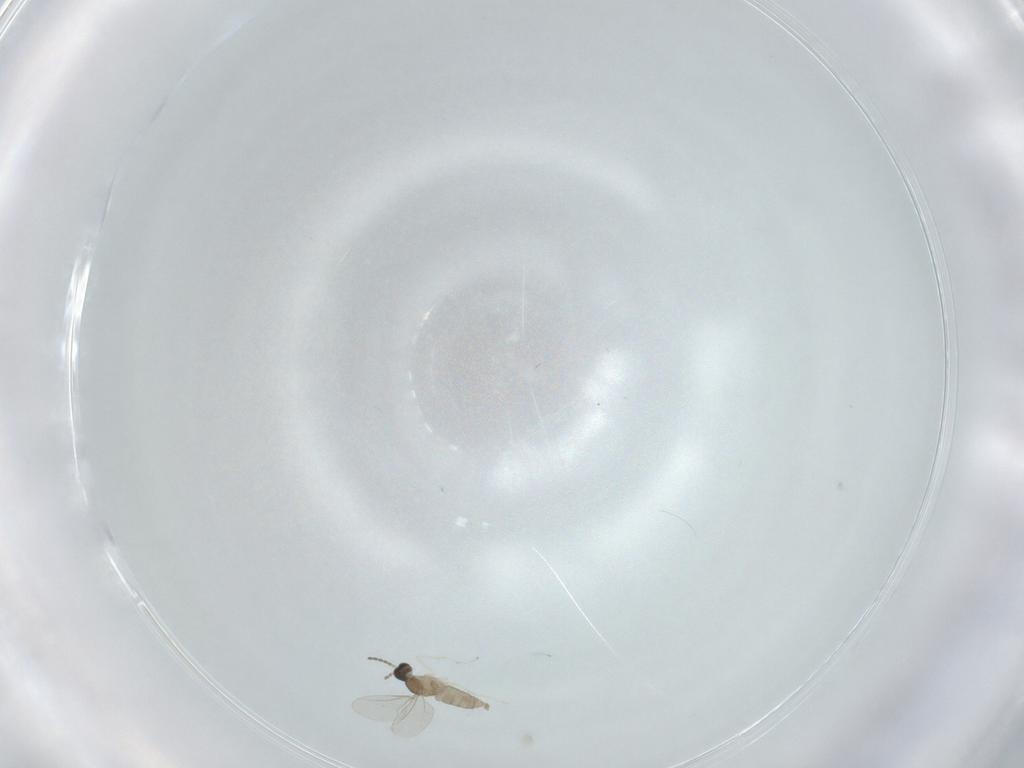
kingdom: Animalia
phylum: Arthropoda
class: Insecta
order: Diptera
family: Cecidomyiidae
